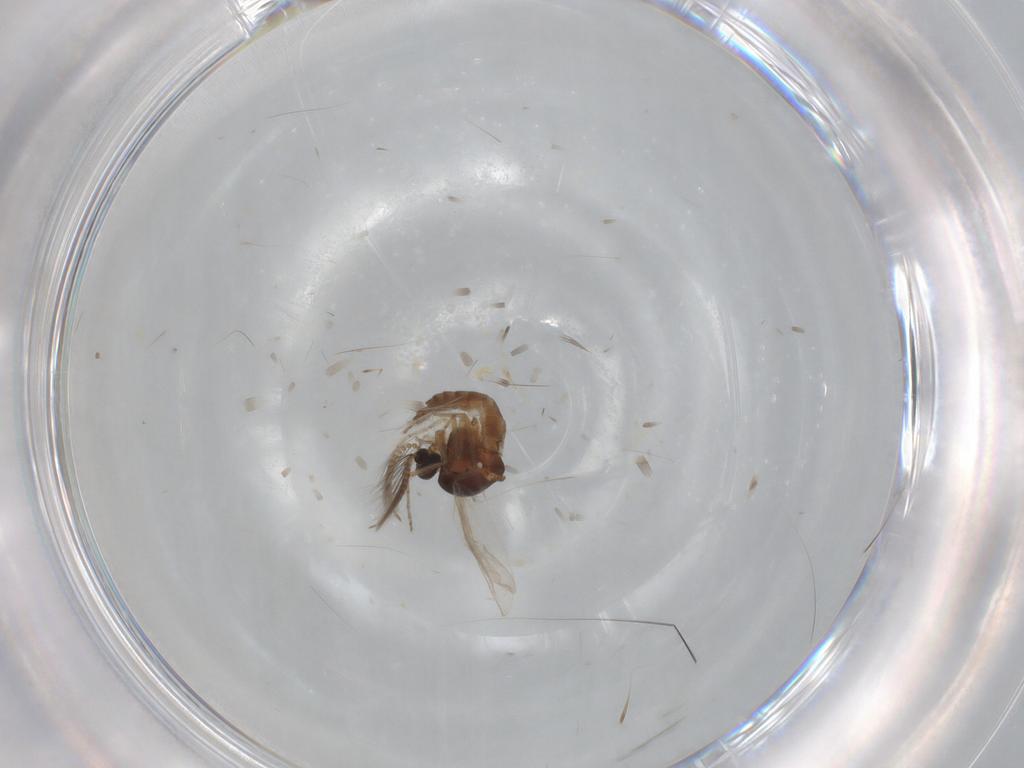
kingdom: Animalia
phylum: Arthropoda
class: Insecta
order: Diptera
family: Ceratopogonidae
